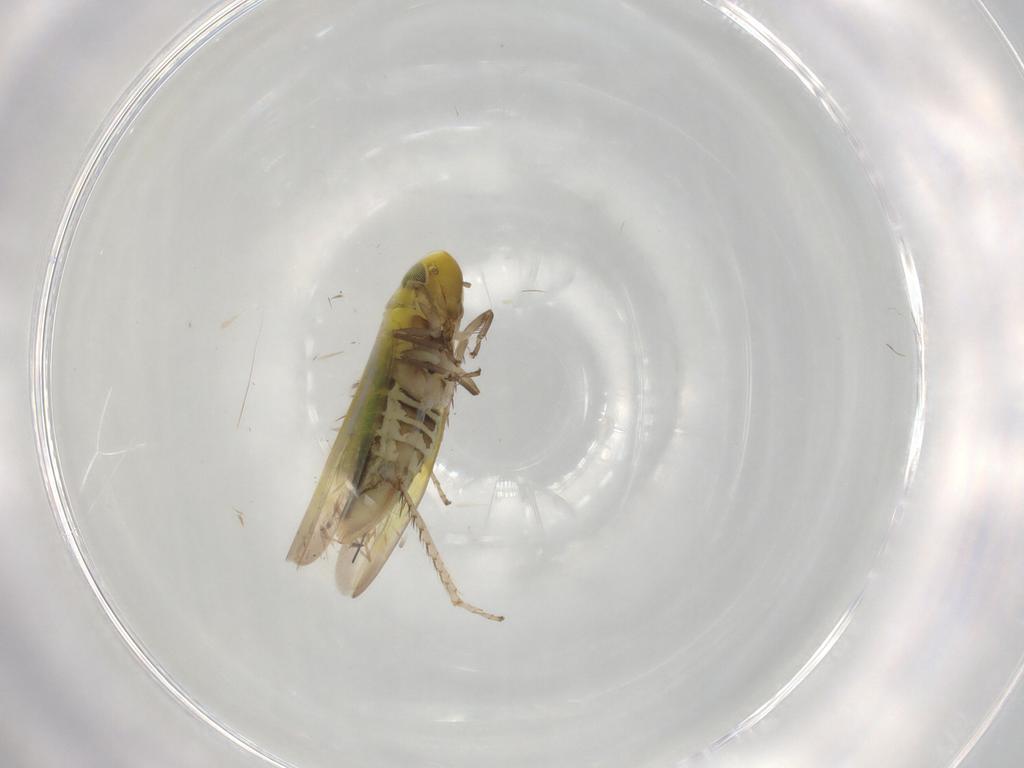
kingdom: Animalia
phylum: Arthropoda
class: Insecta
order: Hemiptera
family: Cicadellidae
